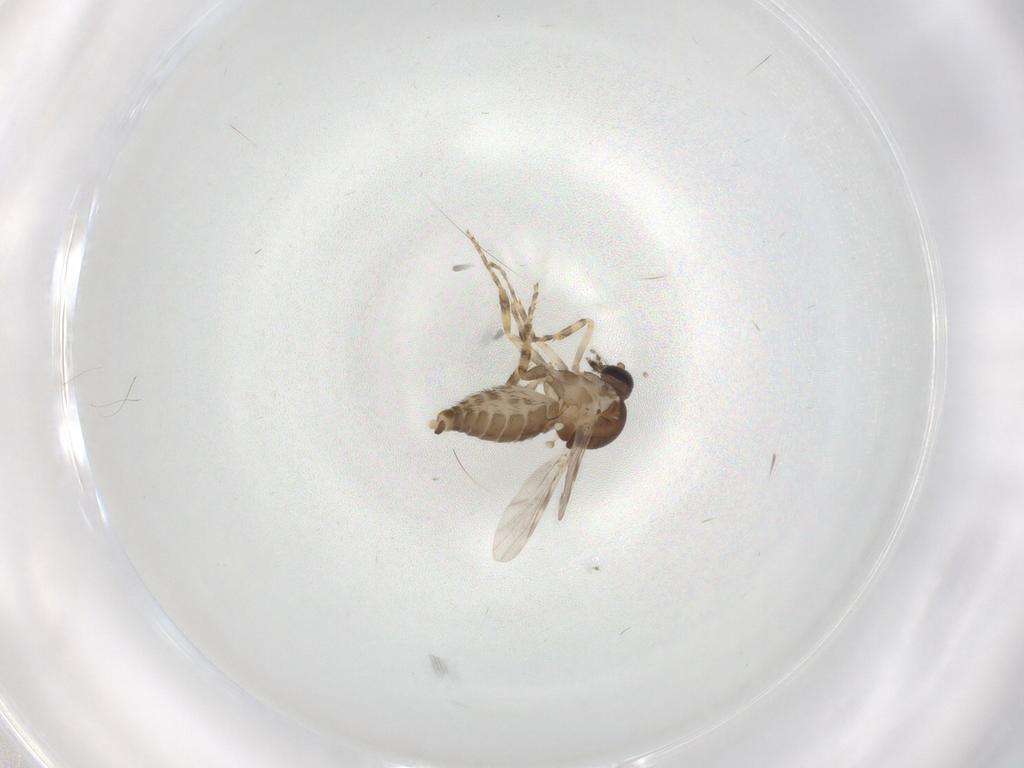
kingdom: Animalia
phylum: Arthropoda
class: Insecta
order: Diptera
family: Ceratopogonidae
